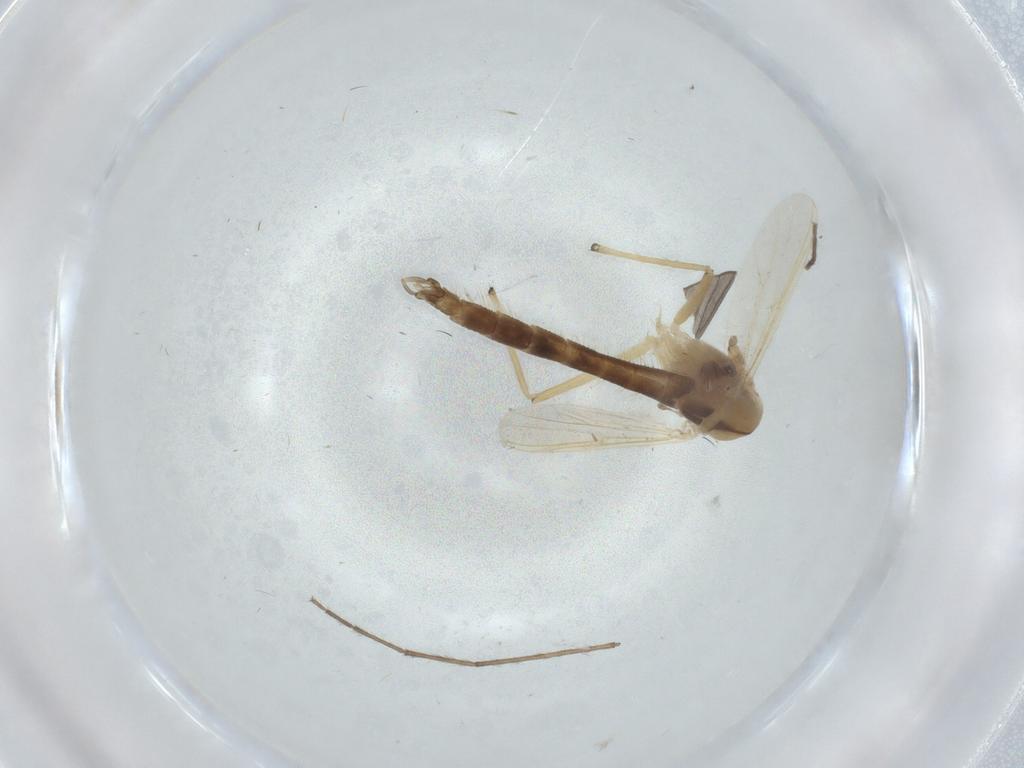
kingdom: Animalia
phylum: Arthropoda
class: Insecta
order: Diptera
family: Chironomidae
